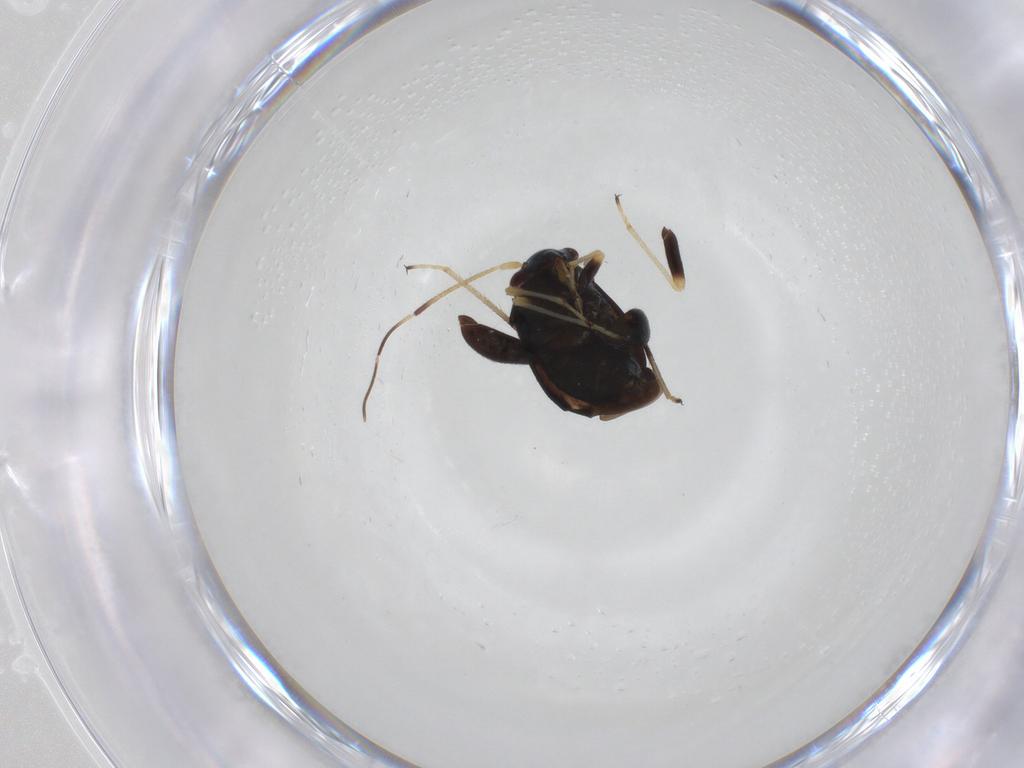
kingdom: Animalia
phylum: Arthropoda
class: Insecta
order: Hemiptera
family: Miridae
